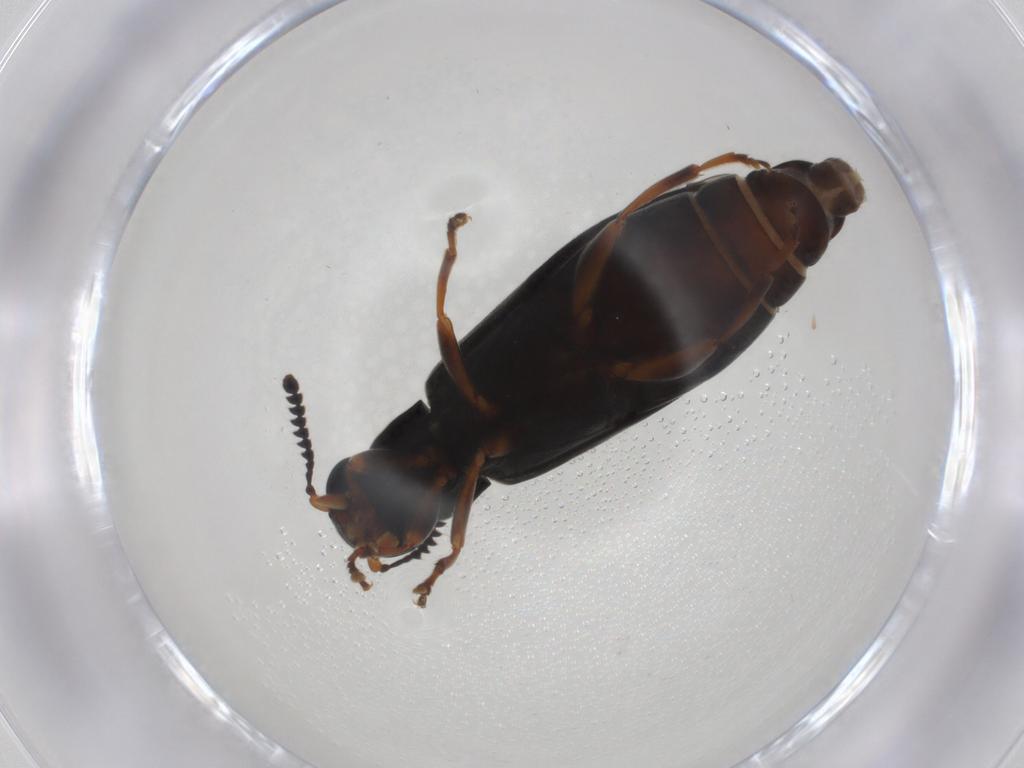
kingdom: Animalia
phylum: Arthropoda
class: Insecta
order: Coleoptera
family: Mycteridae
